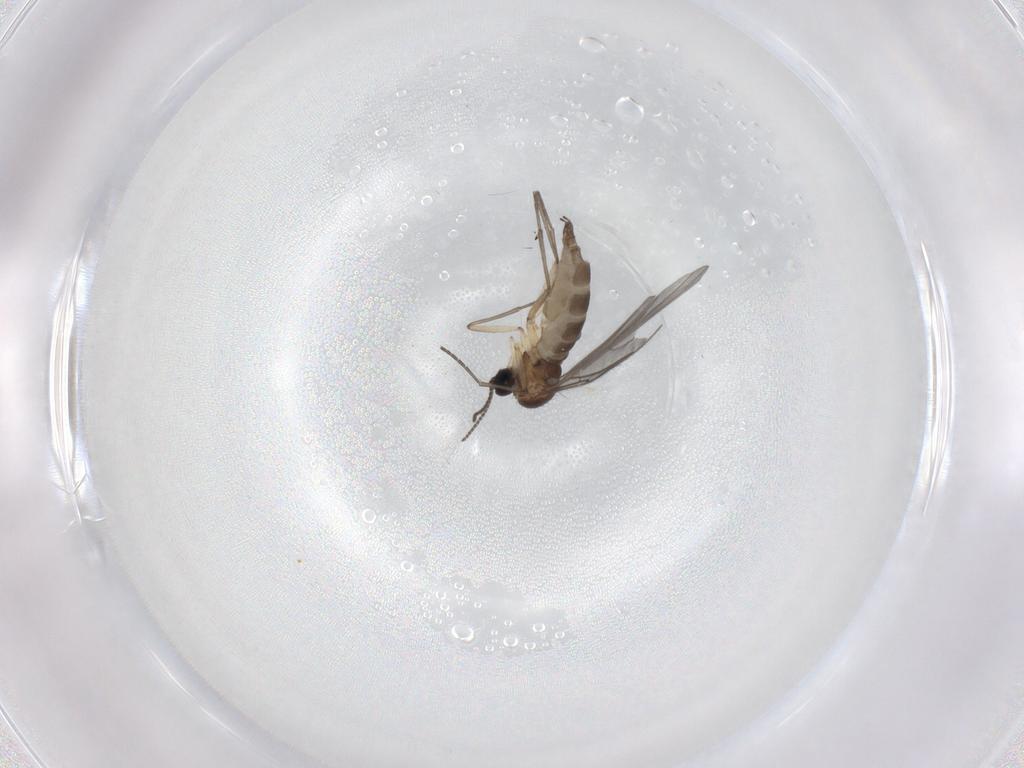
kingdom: Animalia
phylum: Arthropoda
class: Insecta
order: Diptera
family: Sciaridae
